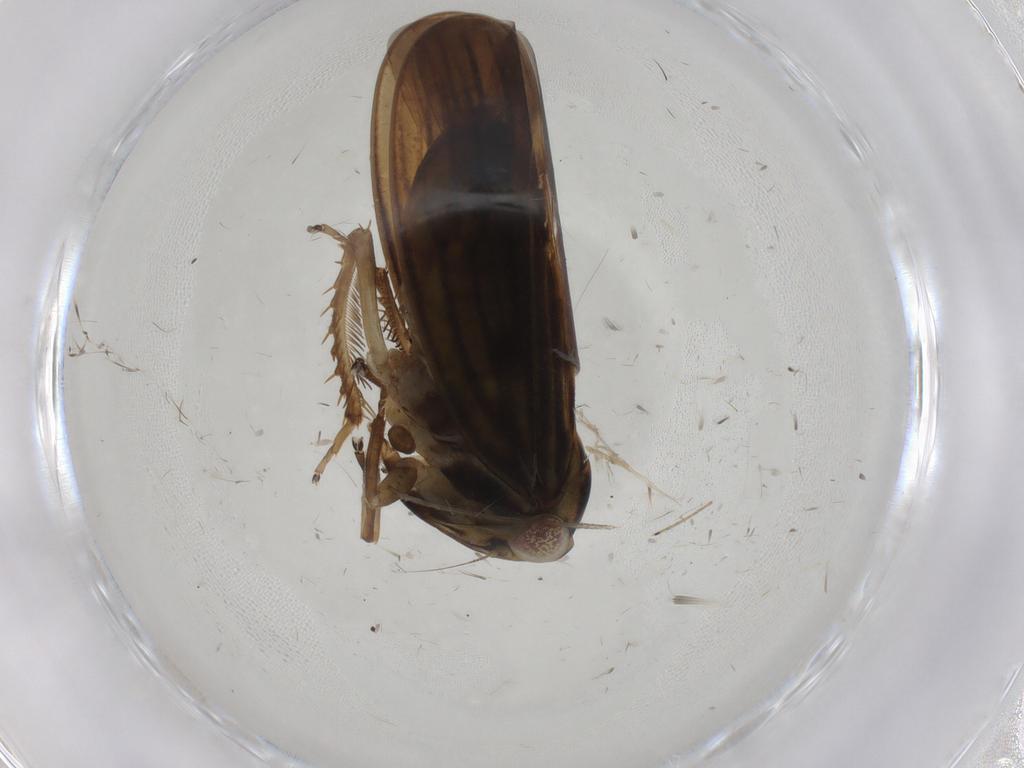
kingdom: Animalia
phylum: Arthropoda
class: Insecta
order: Hemiptera
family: Cicadellidae
